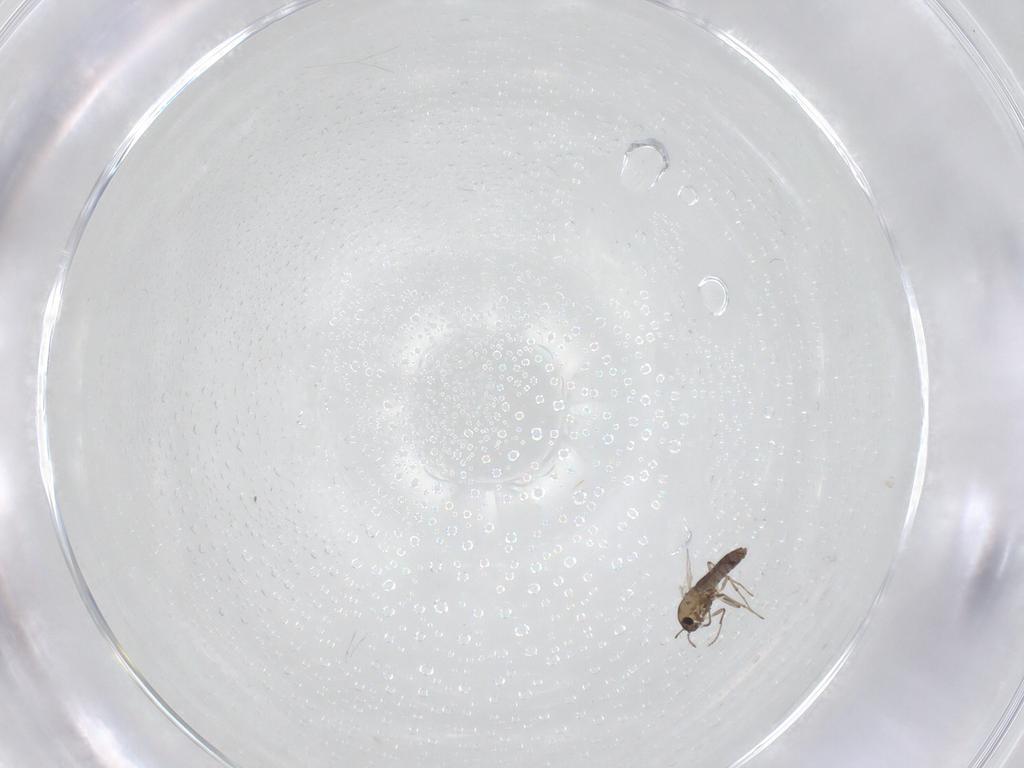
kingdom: Animalia
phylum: Arthropoda
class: Insecta
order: Diptera
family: Chironomidae
